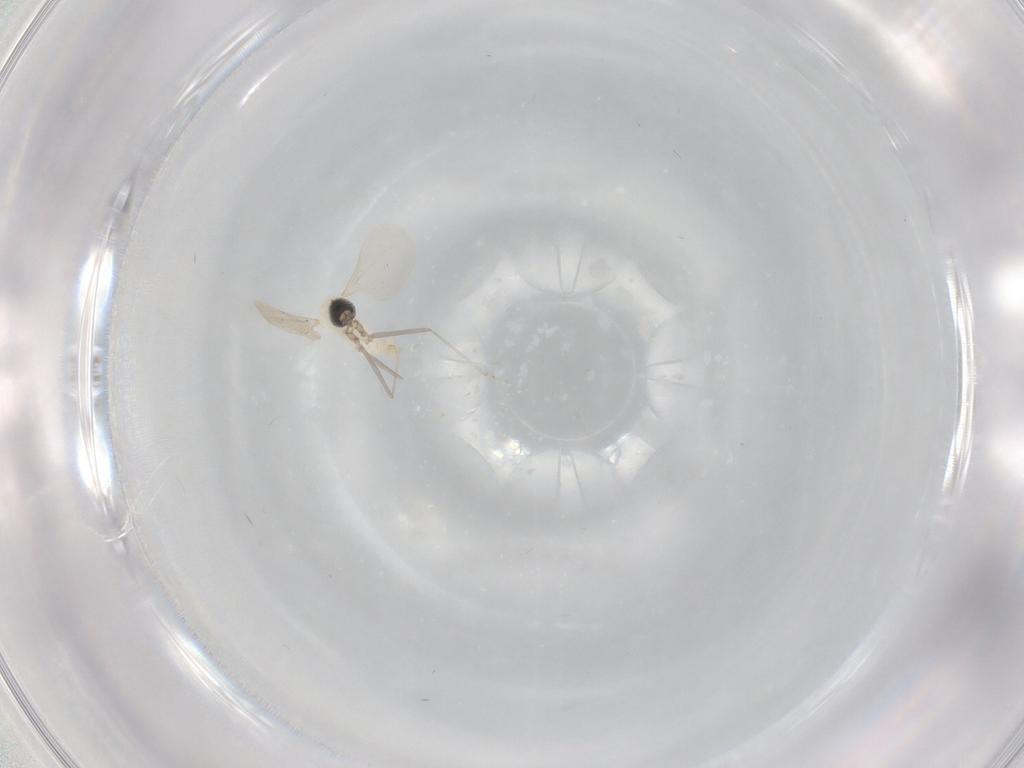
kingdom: Animalia
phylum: Arthropoda
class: Insecta
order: Diptera
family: Cecidomyiidae
